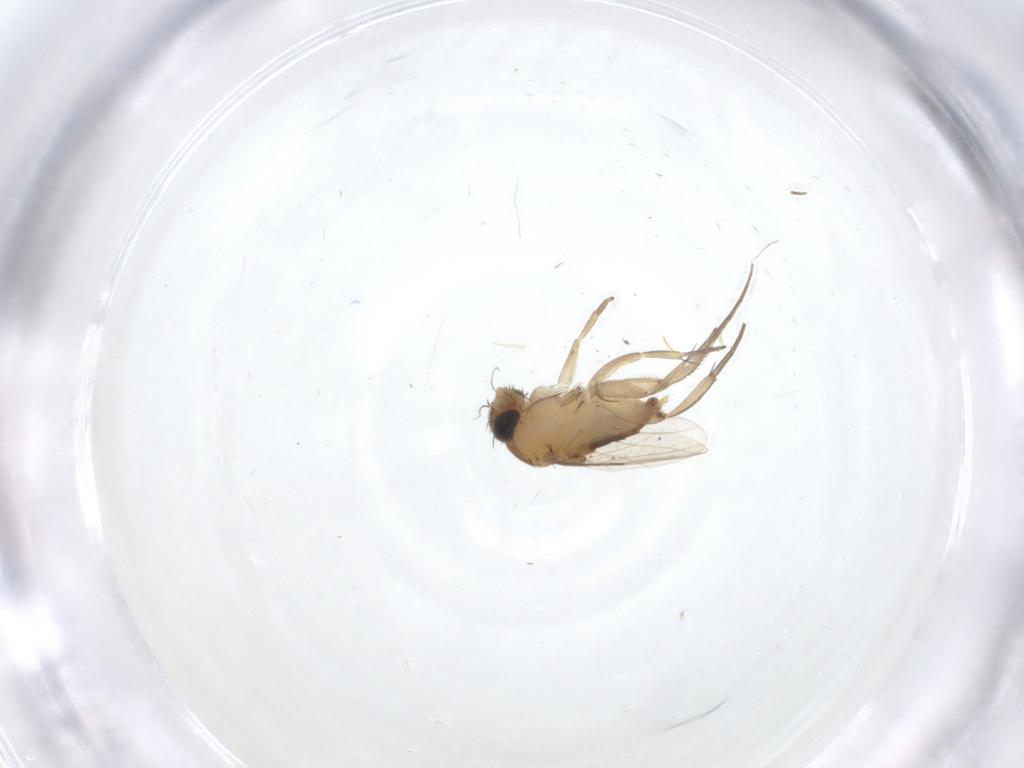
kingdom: Animalia
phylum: Arthropoda
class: Insecta
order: Diptera
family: Phoridae
